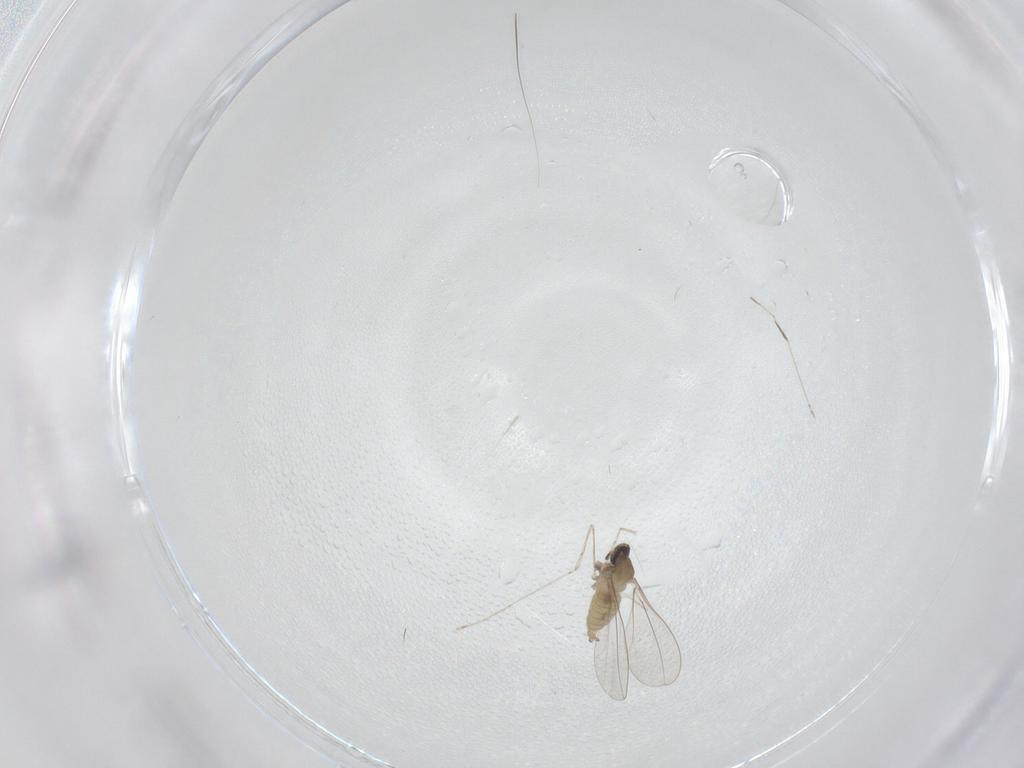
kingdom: Animalia
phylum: Arthropoda
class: Insecta
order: Diptera
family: Cecidomyiidae
